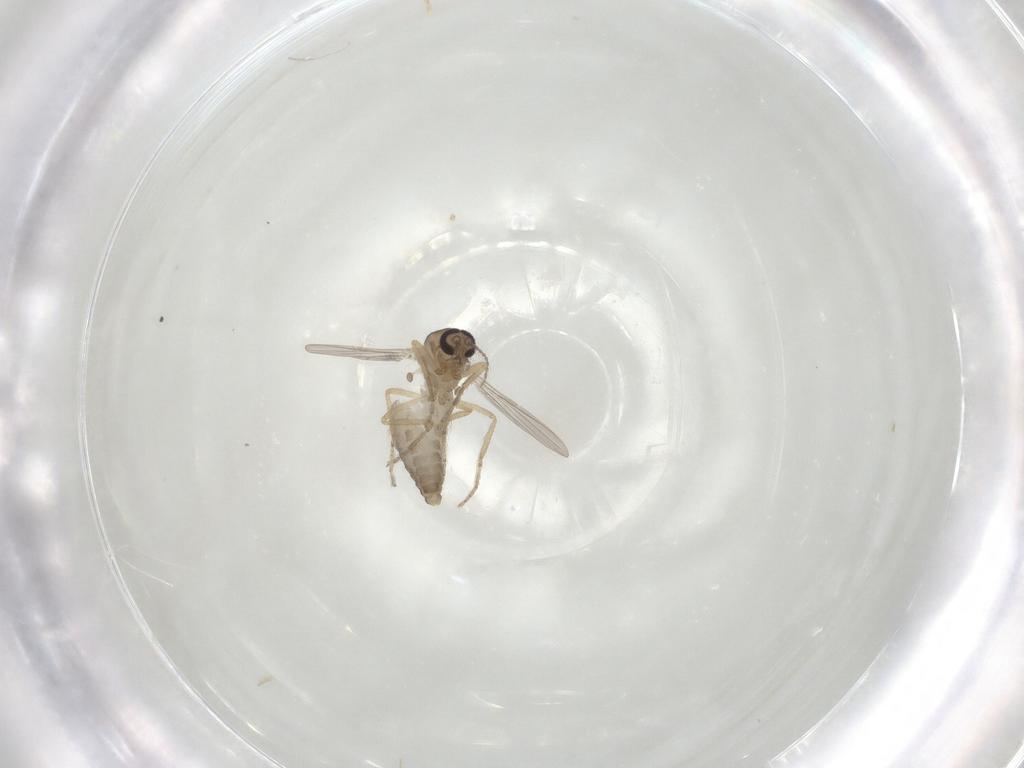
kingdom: Animalia
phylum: Arthropoda
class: Insecta
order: Diptera
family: Ceratopogonidae
